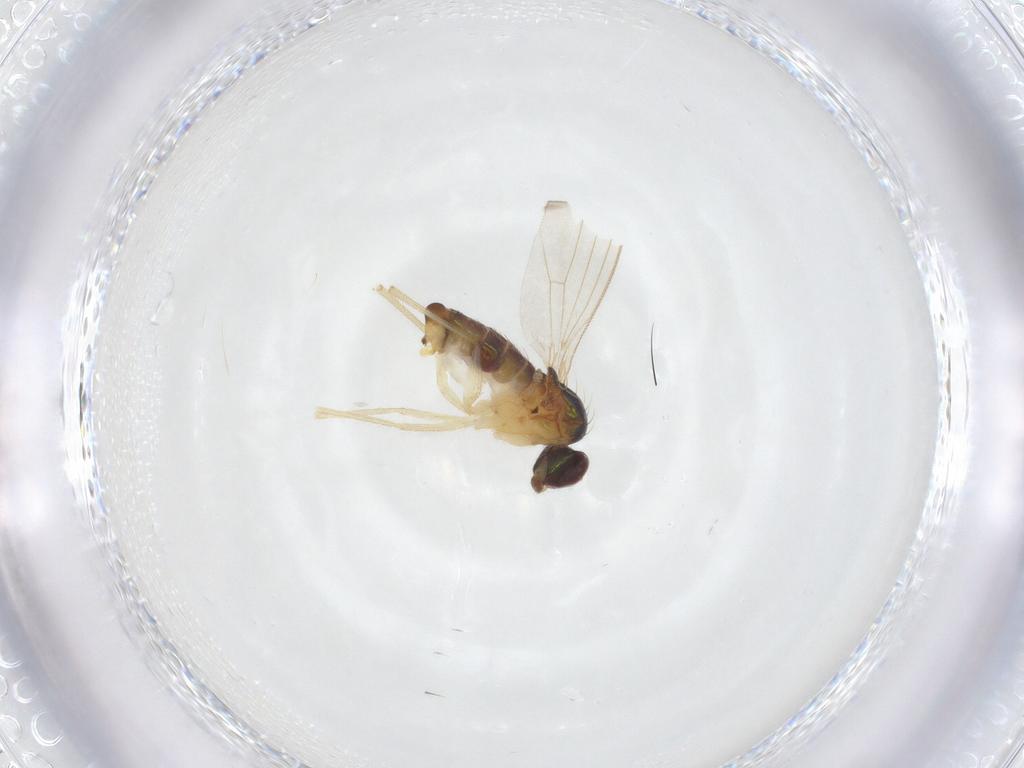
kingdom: Animalia
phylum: Arthropoda
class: Insecta
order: Diptera
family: Dolichopodidae
